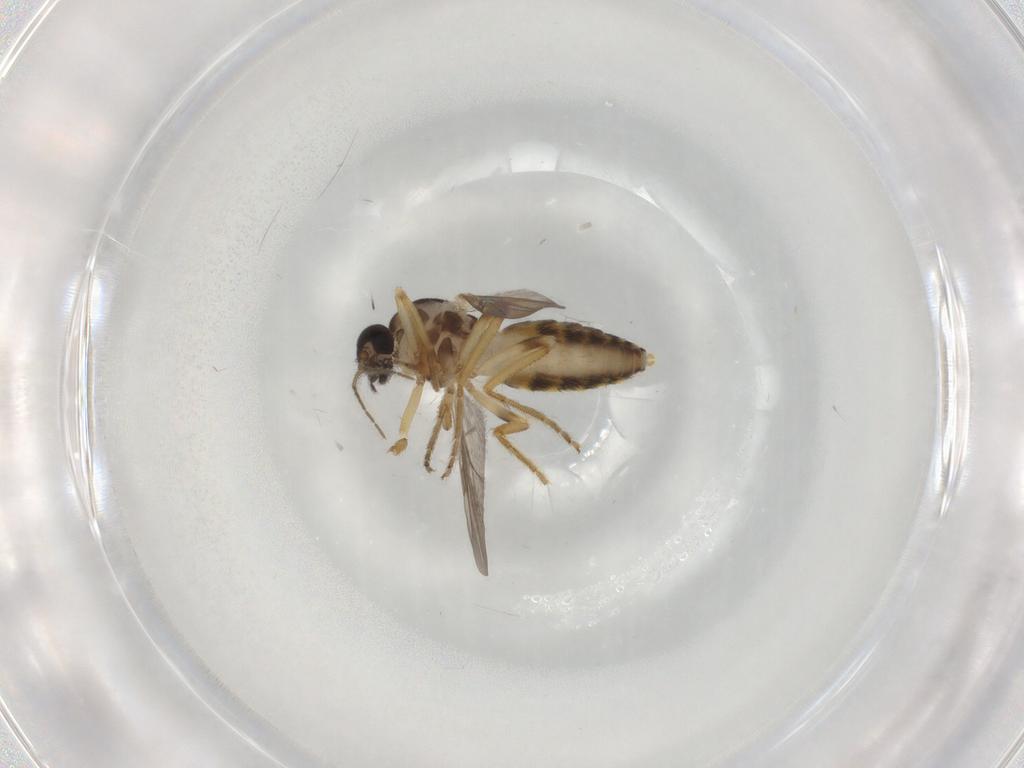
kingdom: Animalia
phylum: Arthropoda
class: Insecta
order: Diptera
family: Ceratopogonidae
